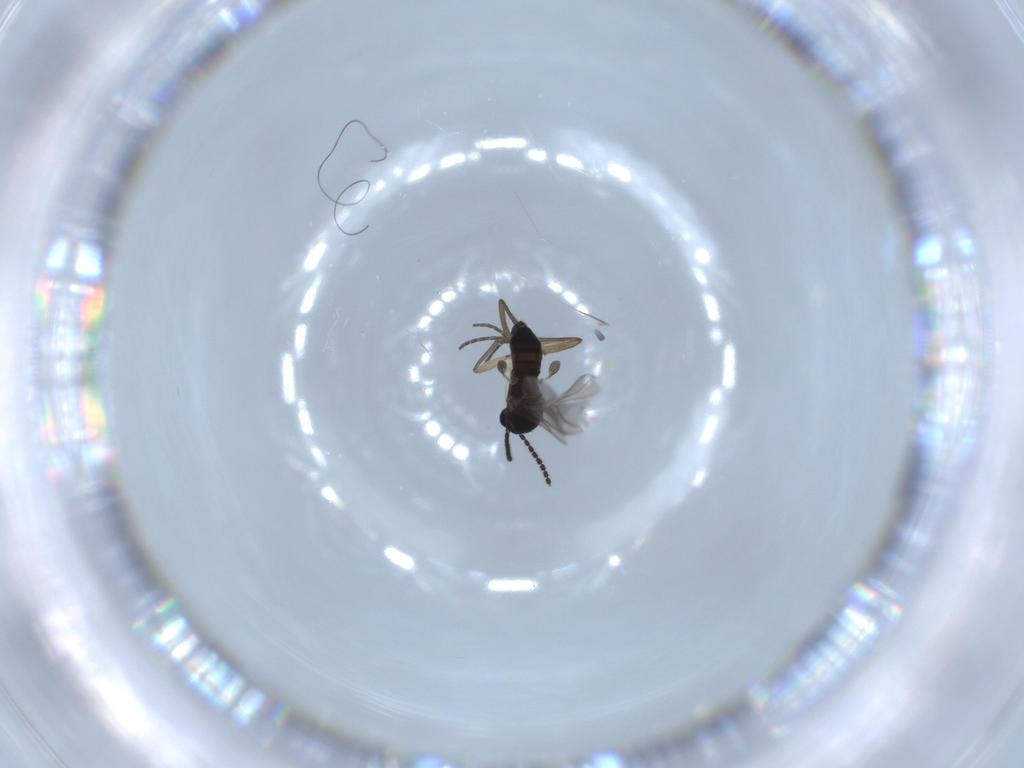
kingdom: Animalia
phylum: Arthropoda
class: Insecta
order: Diptera
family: Sciaridae
